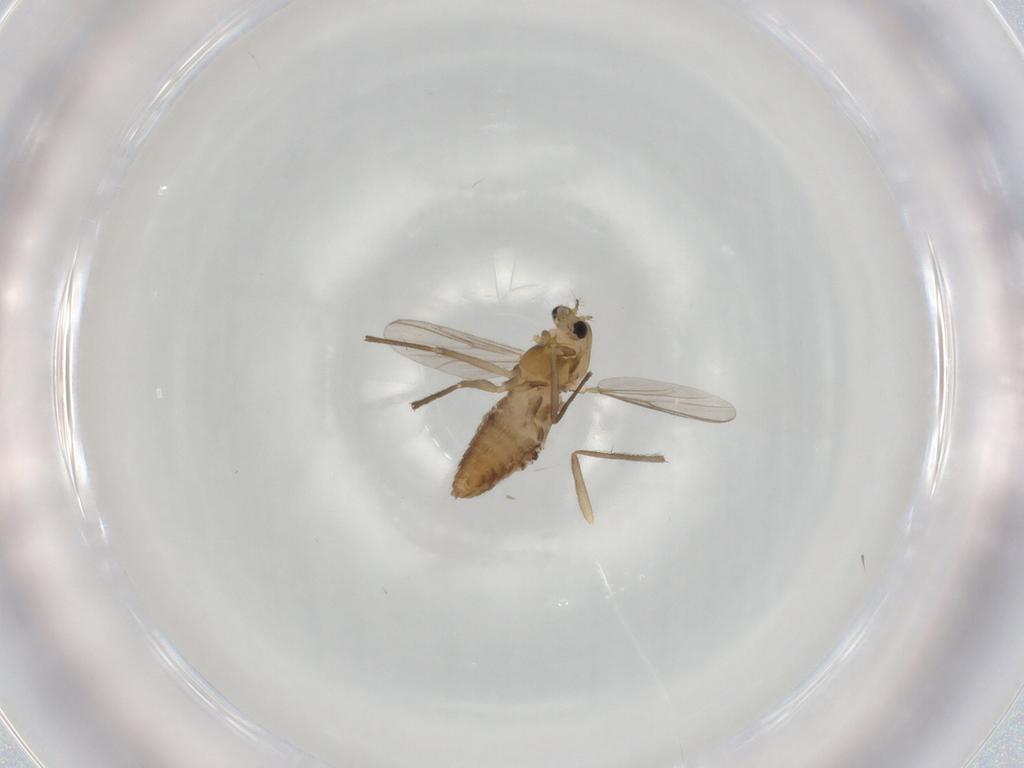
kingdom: Animalia
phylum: Arthropoda
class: Insecta
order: Diptera
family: Chironomidae
